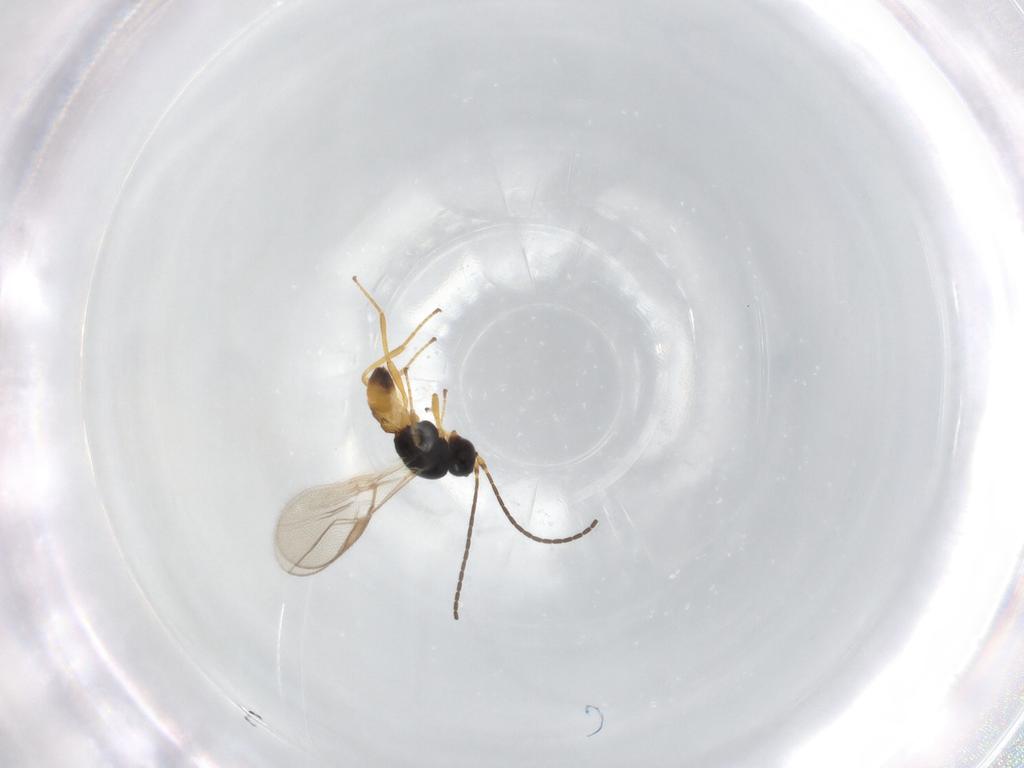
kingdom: Animalia
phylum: Arthropoda
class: Insecta
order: Hymenoptera
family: Braconidae
